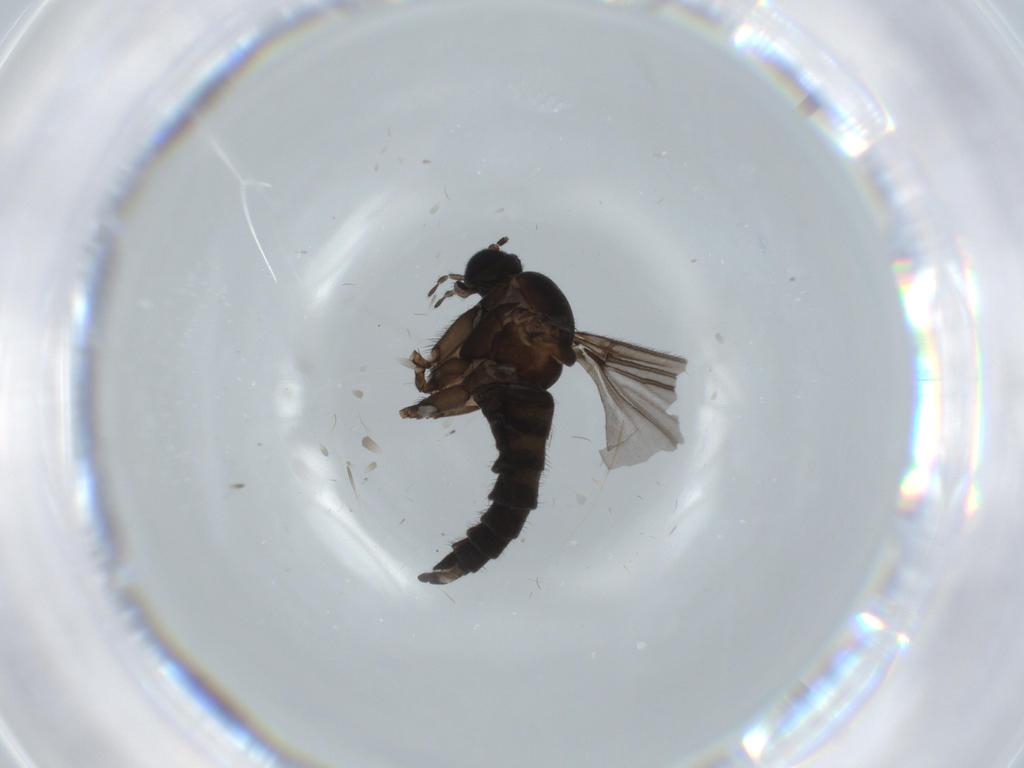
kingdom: Animalia
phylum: Arthropoda
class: Insecta
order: Diptera
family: Sciaridae
